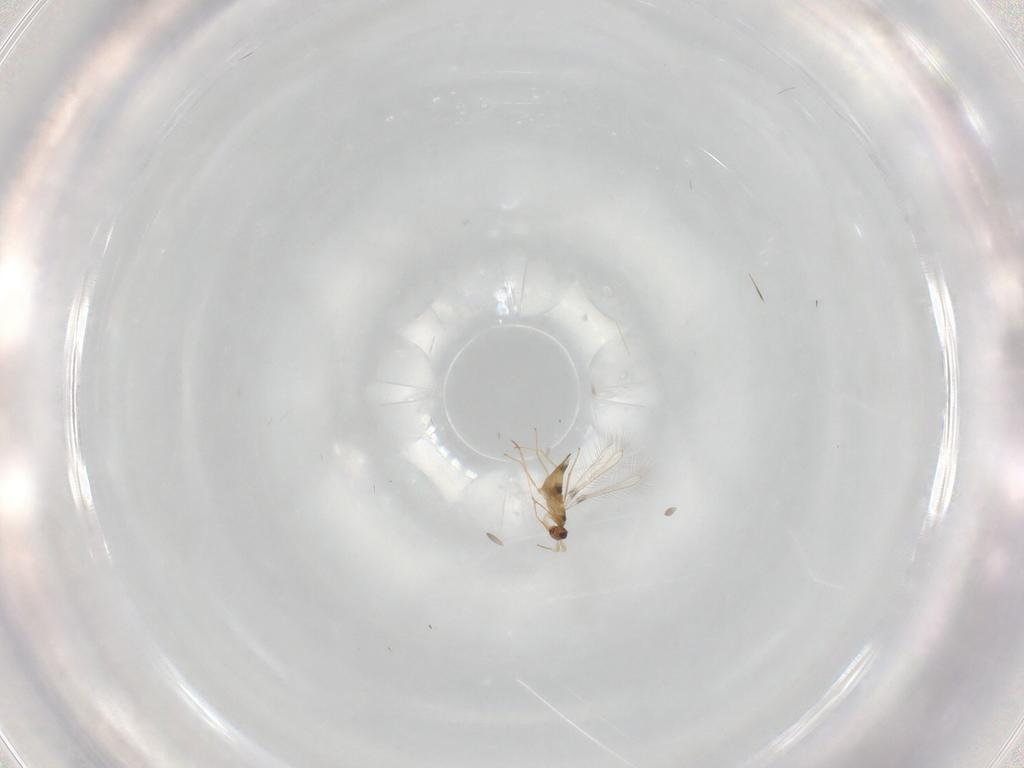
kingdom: Animalia
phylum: Arthropoda
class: Insecta
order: Hymenoptera
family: Mymaridae
